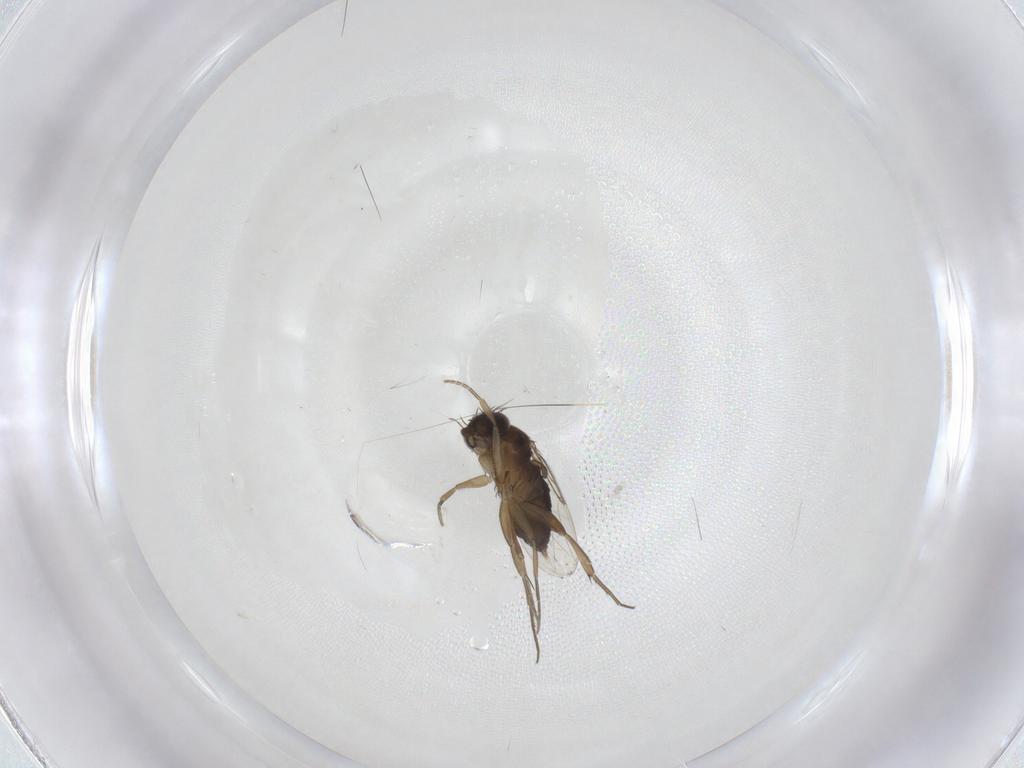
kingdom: Animalia
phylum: Arthropoda
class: Insecta
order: Diptera
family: Phoridae
